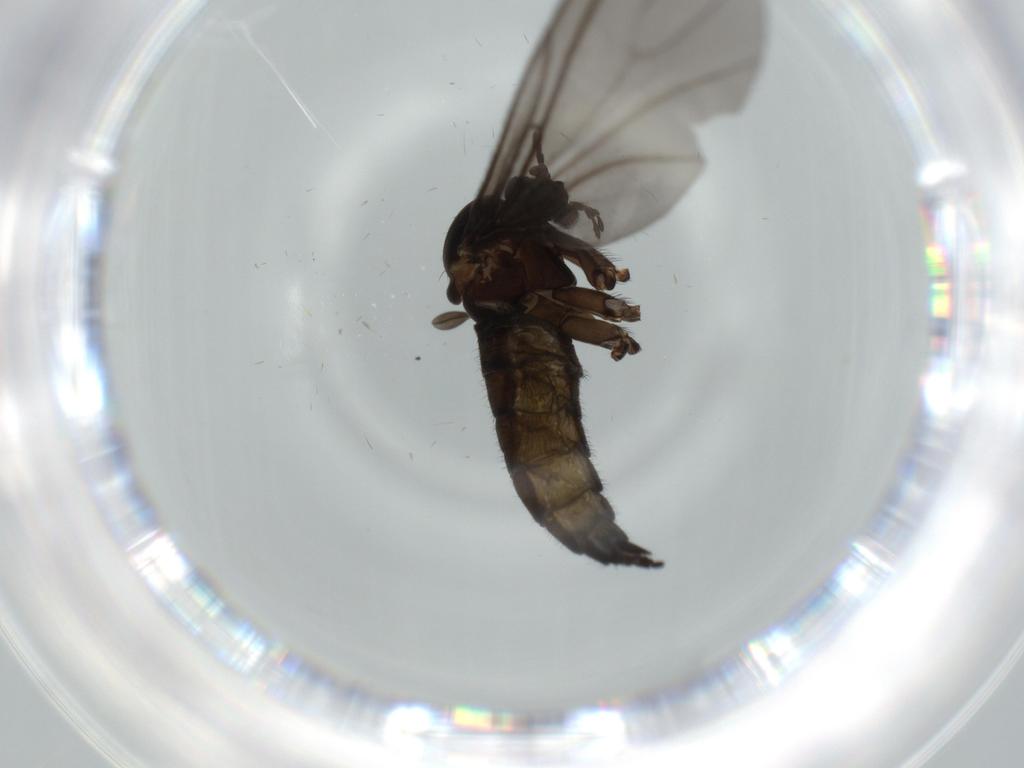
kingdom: Animalia
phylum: Arthropoda
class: Insecta
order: Diptera
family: Sciaridae
